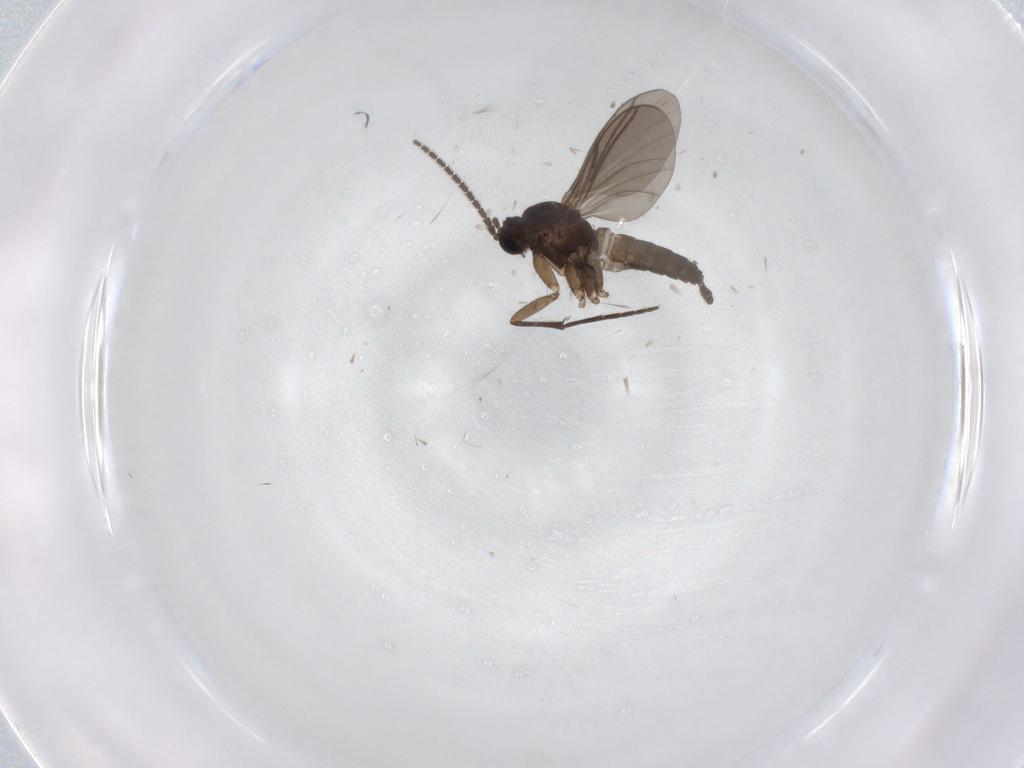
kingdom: Animalia
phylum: Arthropoda
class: Insecta
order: Diptera
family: Sciaridae
